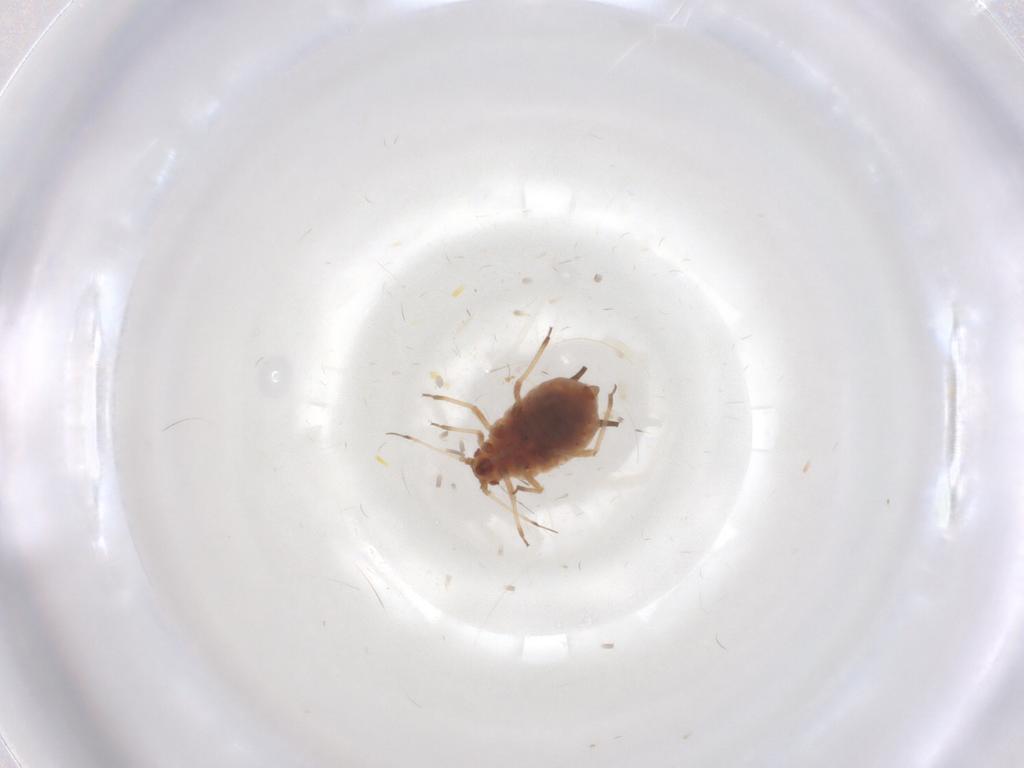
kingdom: Animalia
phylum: Arthropoda
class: Insecta
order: Hemiptera
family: Aphididae
